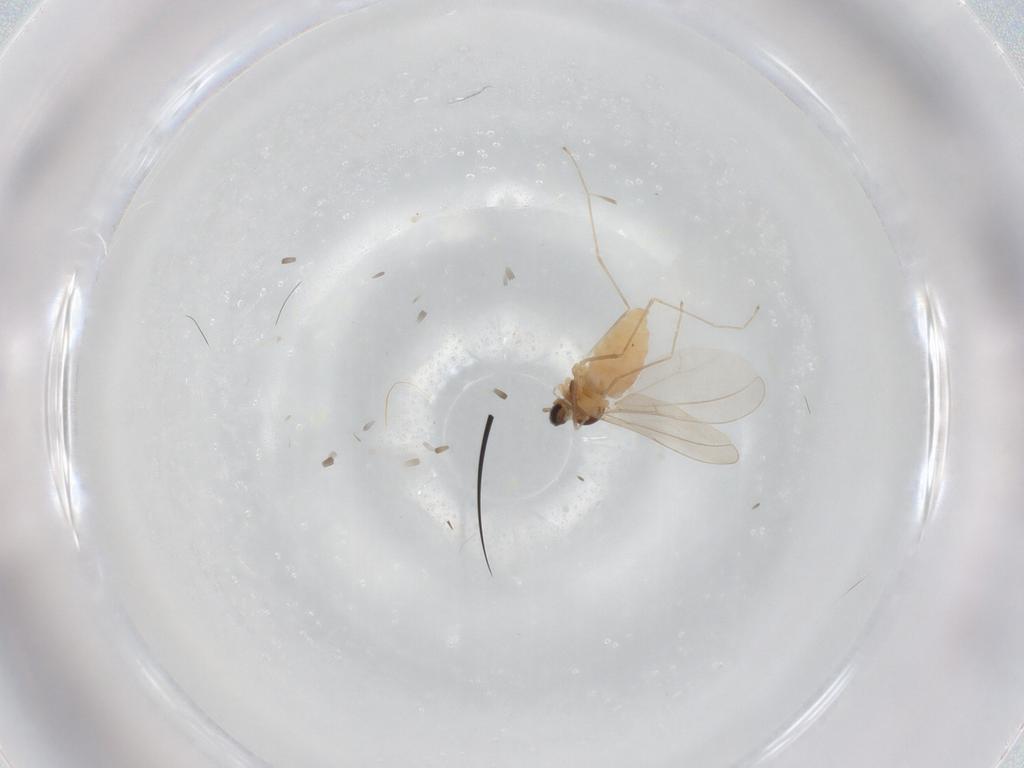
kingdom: Animalia
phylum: Arthropoda
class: Insecta
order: Diptera
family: Cecidomyiidae
